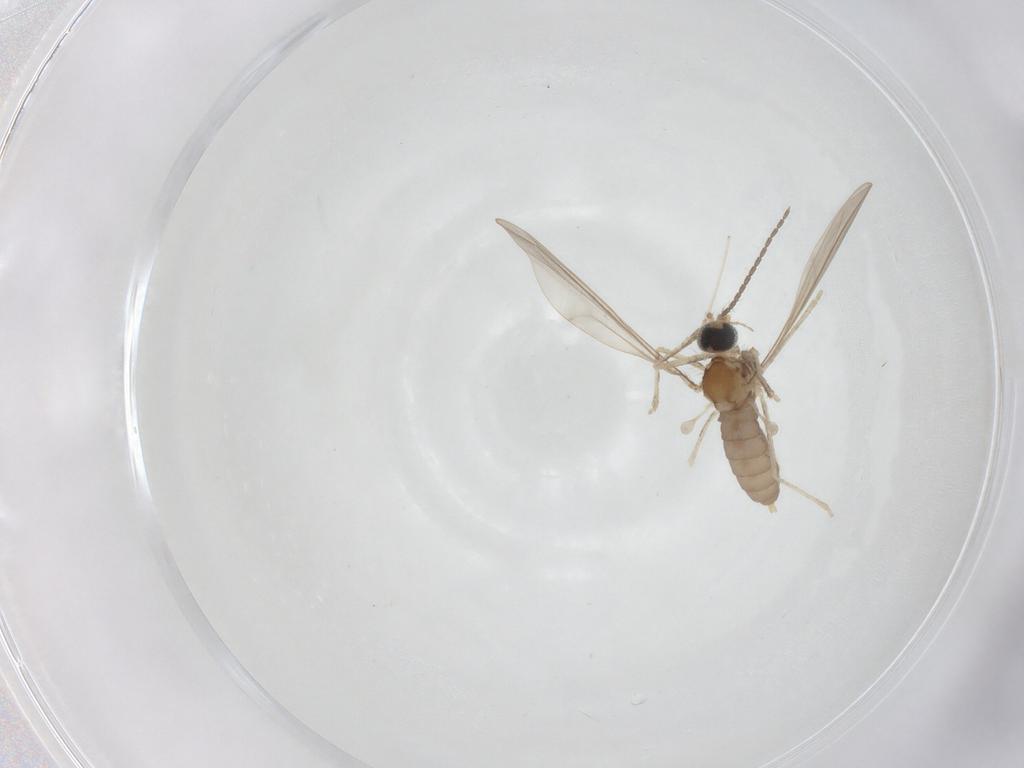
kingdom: Animalia
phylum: Arthropoda
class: Insecta
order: Diptera
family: Cecidomyiidae
